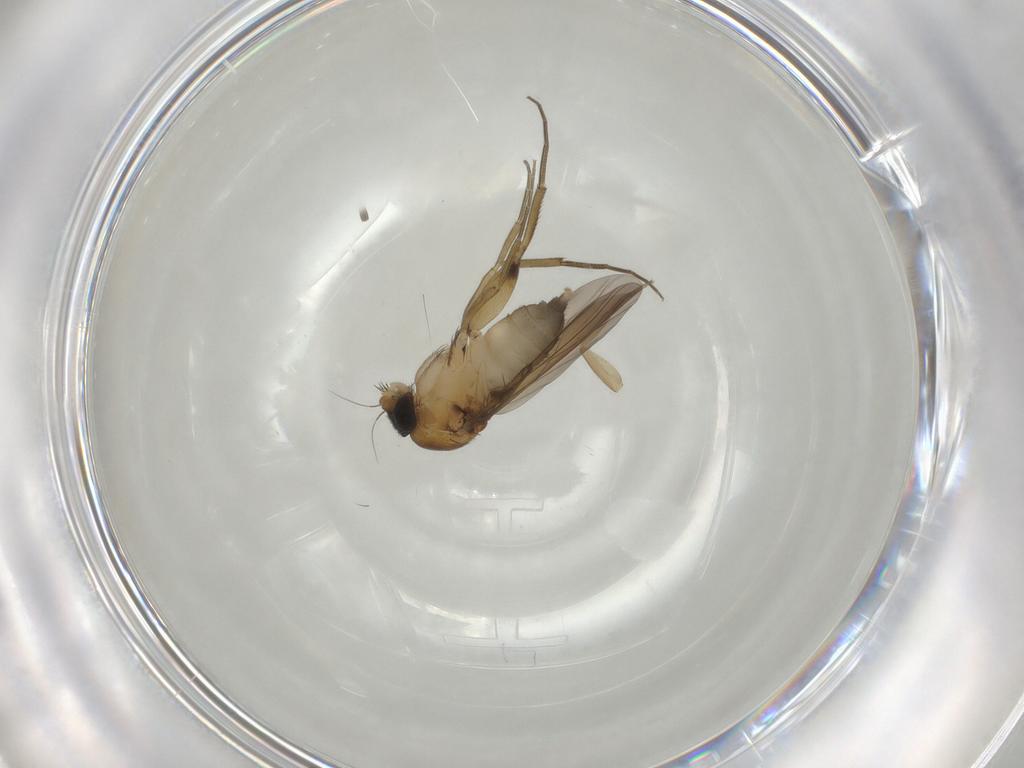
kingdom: Animalia
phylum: Arthropoda
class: Insecta
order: Diptera
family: Phoridae
